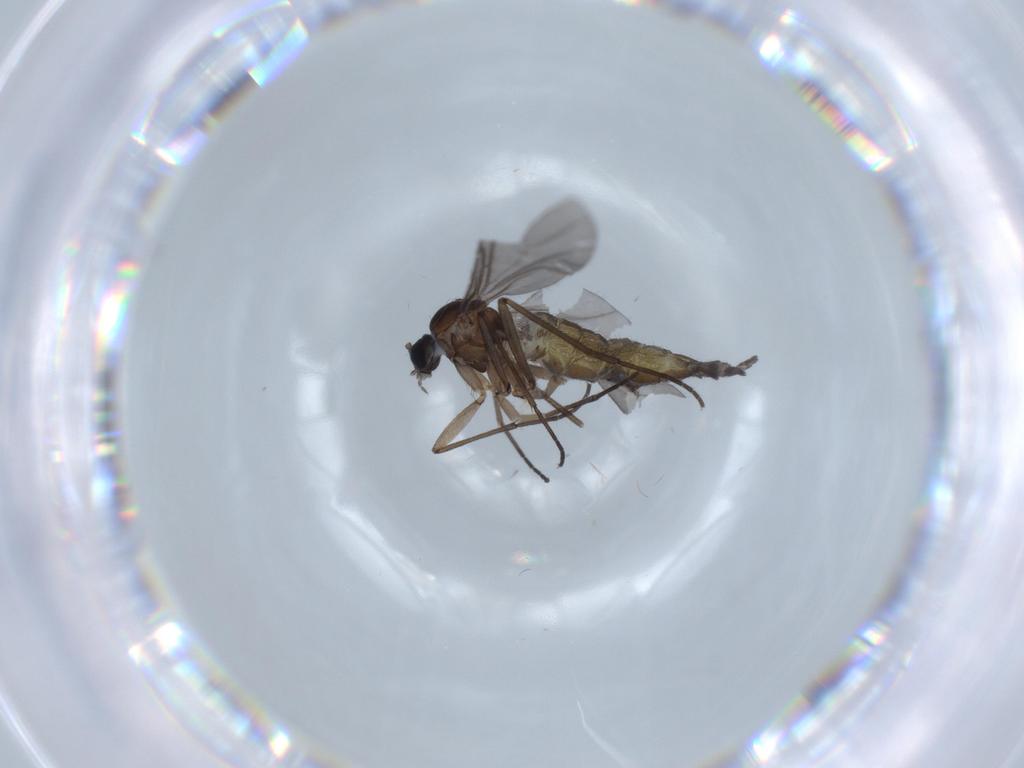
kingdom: Animalia
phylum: Arthropoda
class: Insecta
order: Diptera
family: Sciaridae
